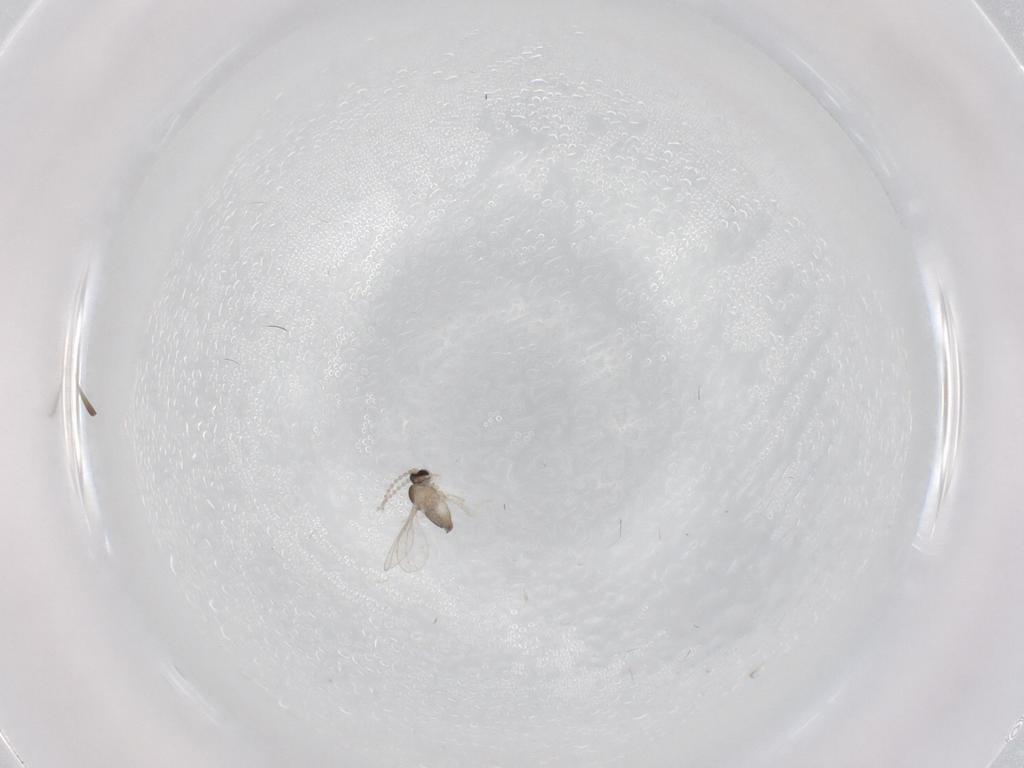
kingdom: Animalia
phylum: Arthropoda
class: Insecta
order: Diptera
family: Cecidomyiidae
